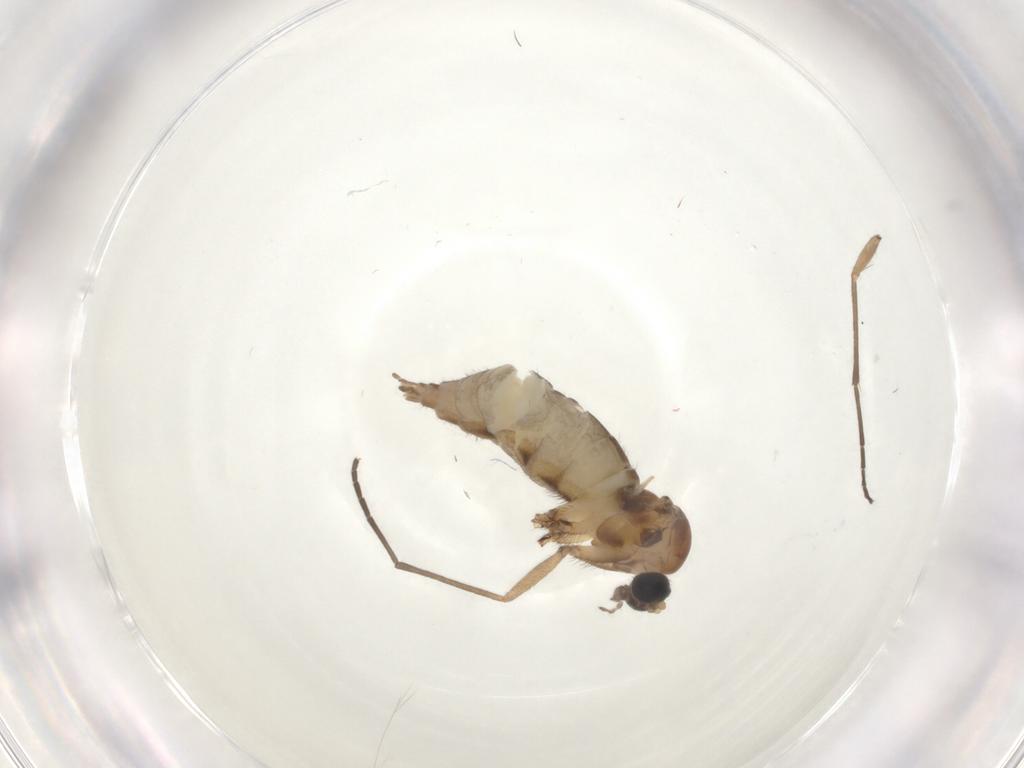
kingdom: Animalia
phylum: Arthropoda
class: Insecta
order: Diptera
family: Sciaridae
